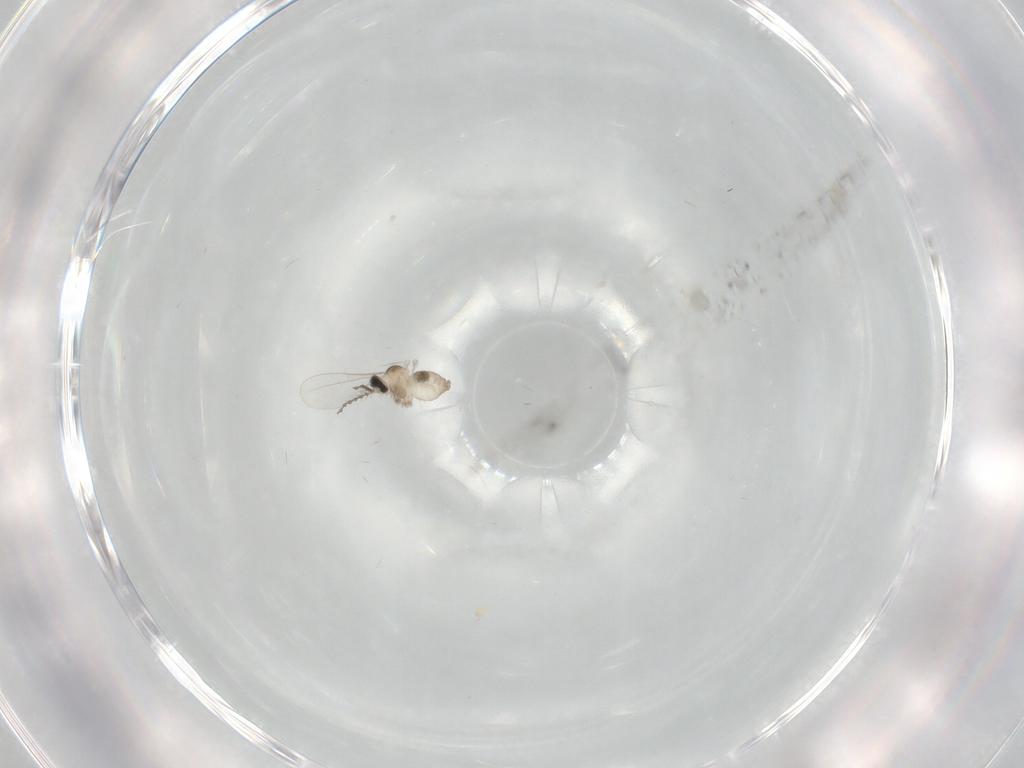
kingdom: Animalia
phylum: Arthropoda
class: Insecta
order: Diptera
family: Cecidomyiidae
